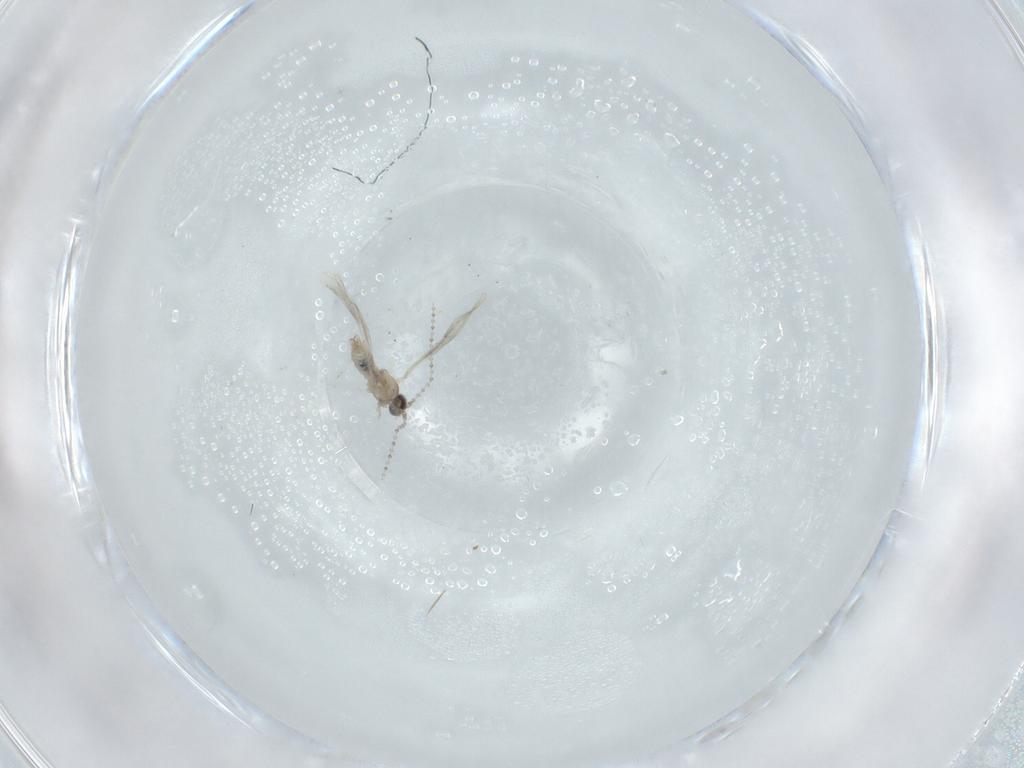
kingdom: Animalia
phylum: Arthropoda
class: Insecta
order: Diptera
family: Cecidomyiidae
